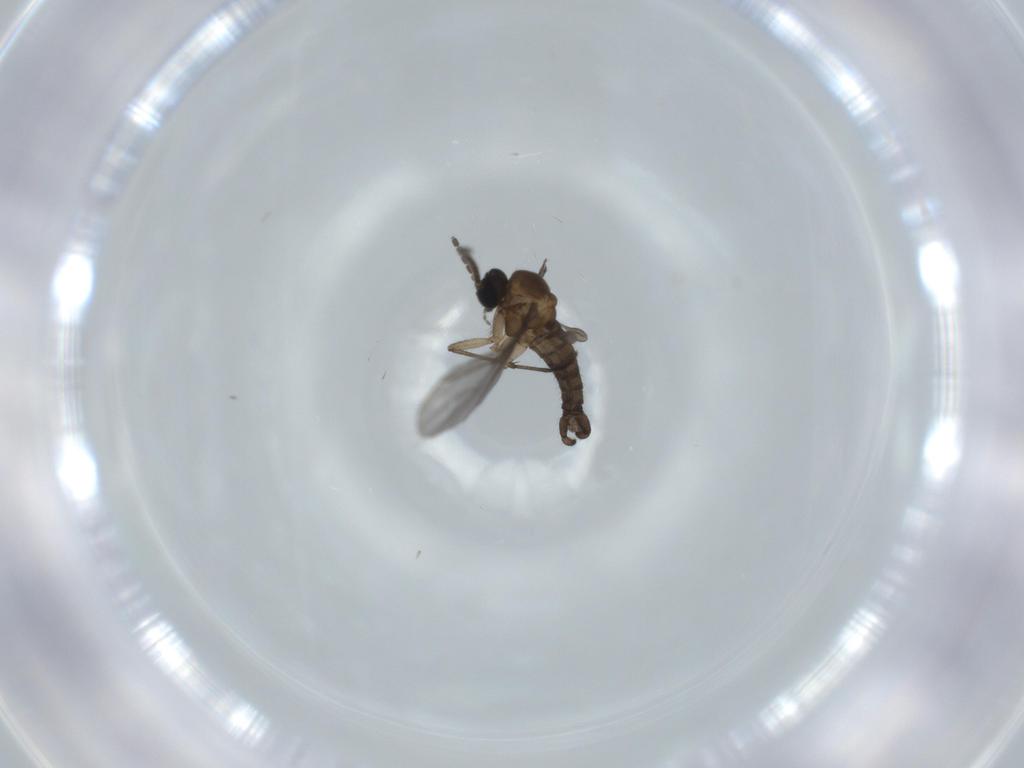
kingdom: Animalia
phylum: Arthropoda
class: Insecta
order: Diptera
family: Sciaridae
